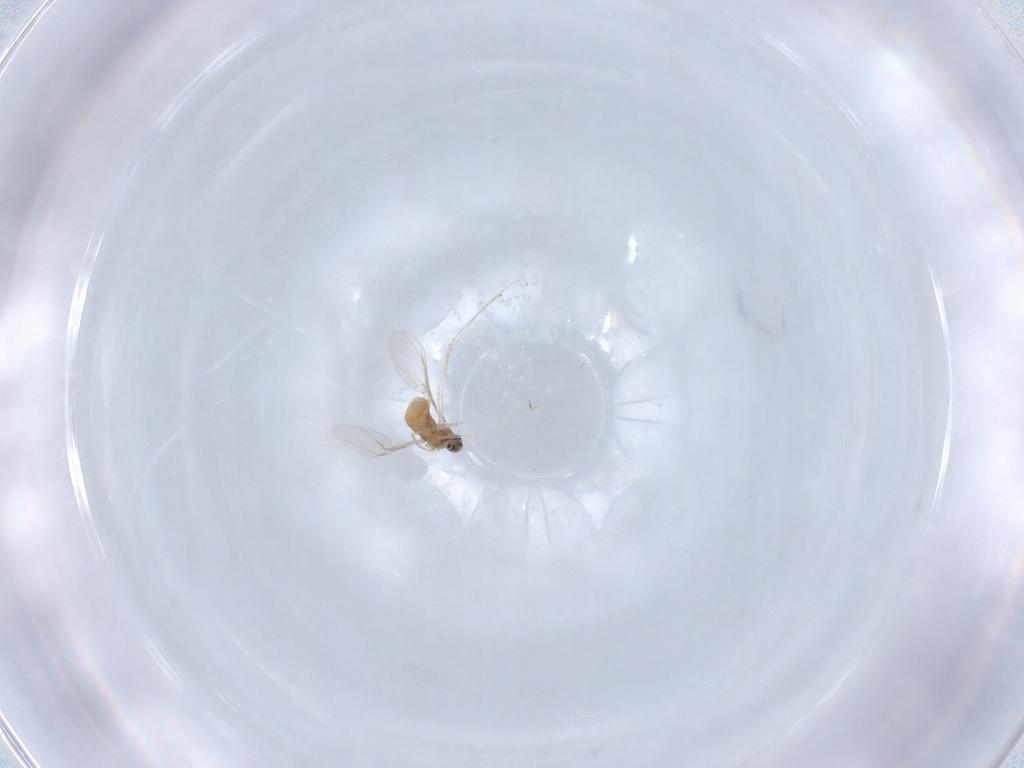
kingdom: Animalia
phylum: Arthropoda
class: Insecta
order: Diptera
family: Cecidomyiidae
